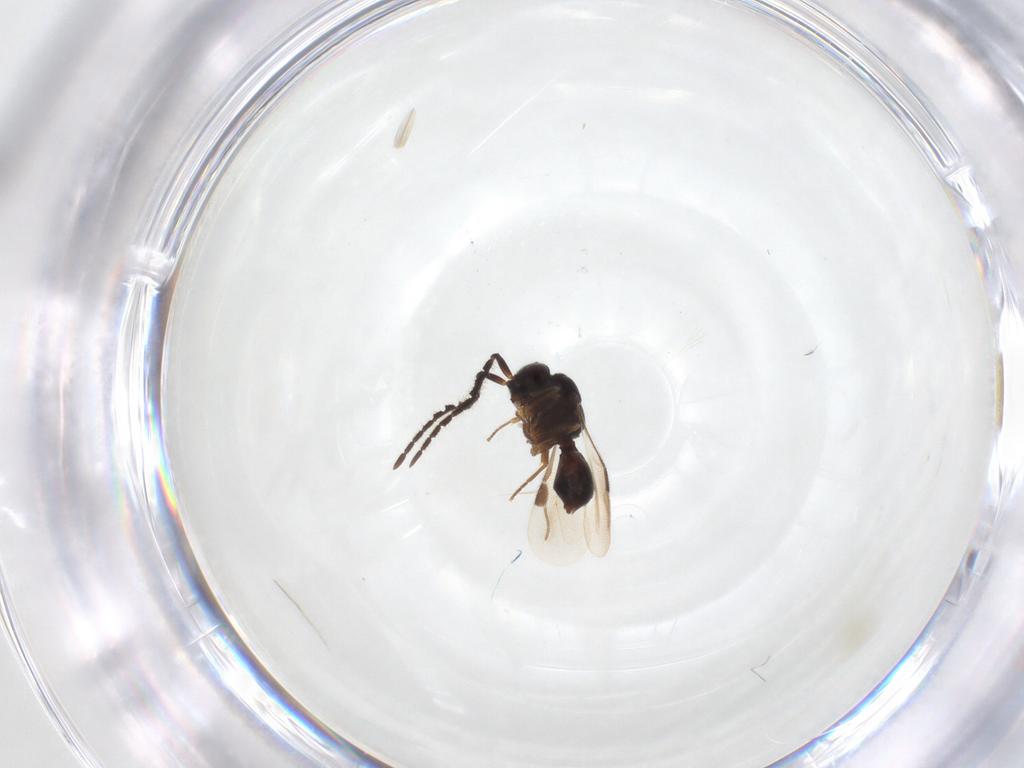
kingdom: Animalia
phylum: Arthropoda
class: Insecta
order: Hymenoptera
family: Megaspilidae
